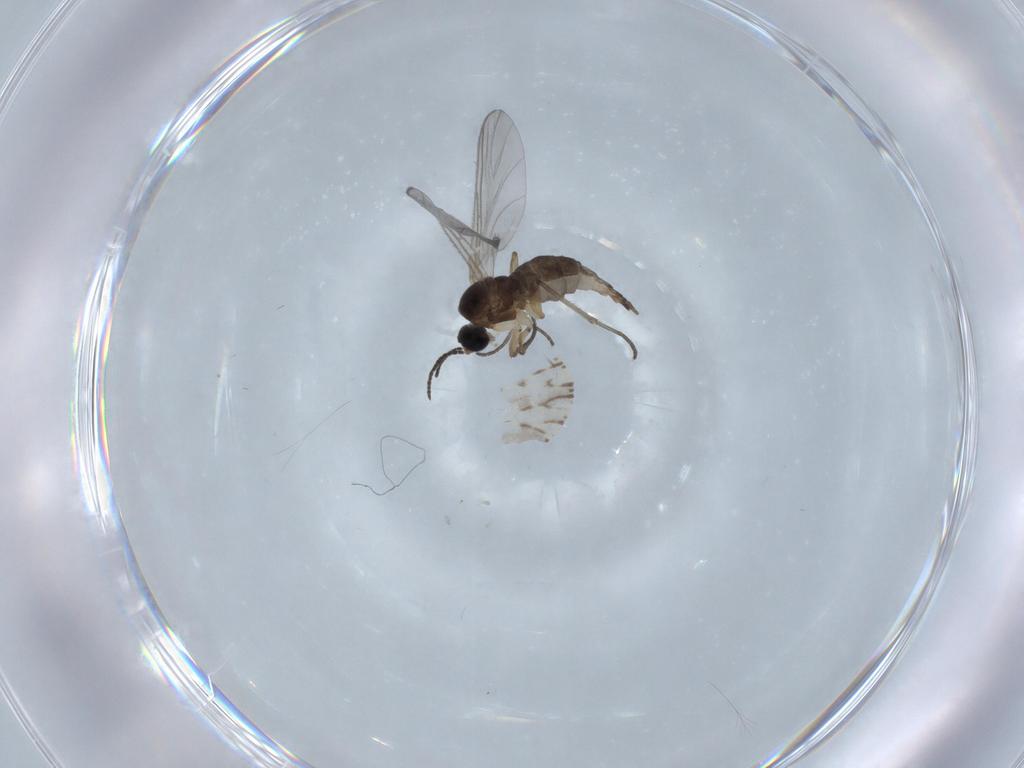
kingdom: Animalia
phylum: Arthropoda
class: Insecta
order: Diptera
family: Sciaridae
